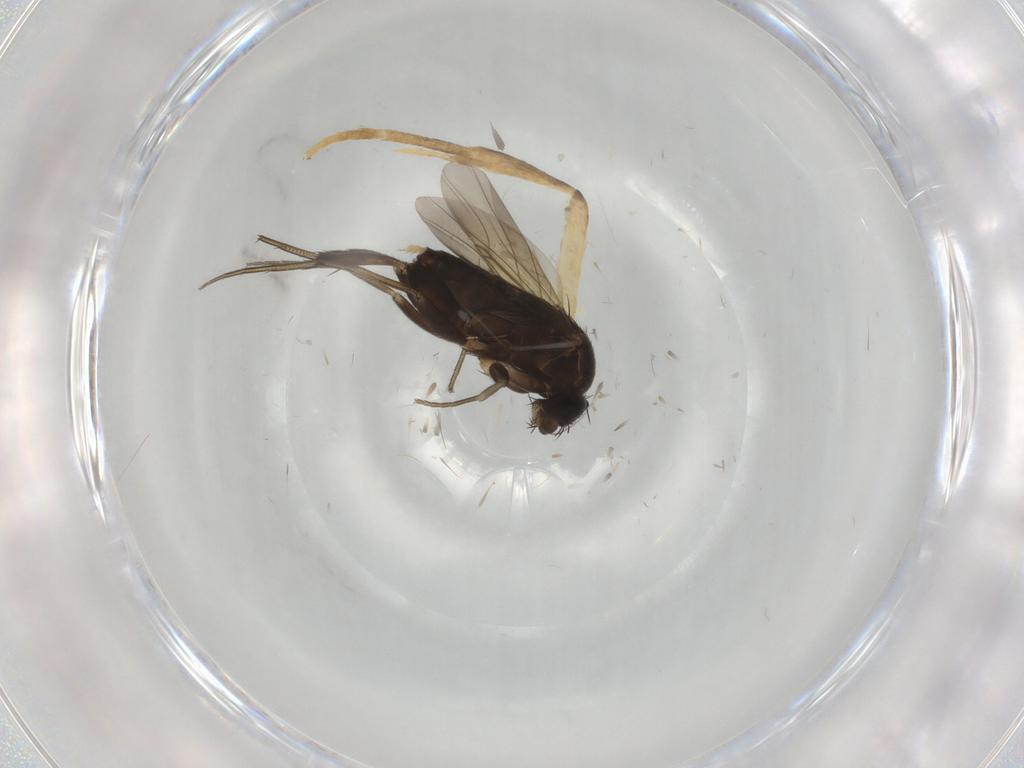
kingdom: Animalia
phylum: Arthropoda
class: Insecta
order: Diptera
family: Phoridae
